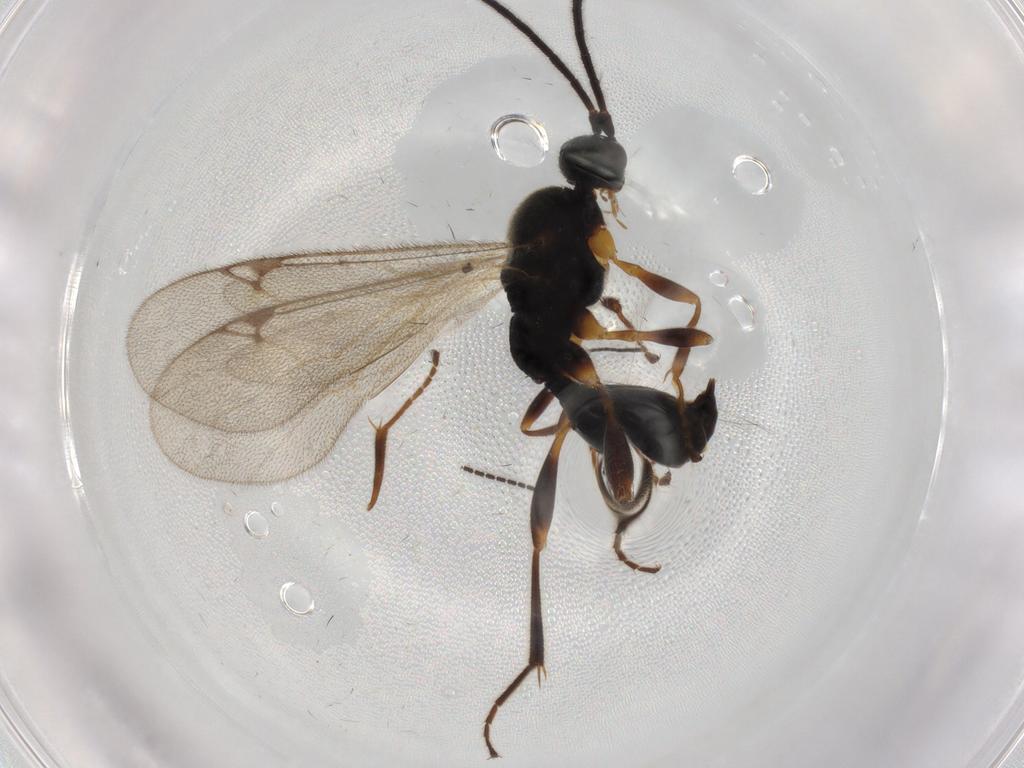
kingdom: Animalia
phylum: Arthropoda
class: Insecta
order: Hymenoptera
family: Proctotrupidae
